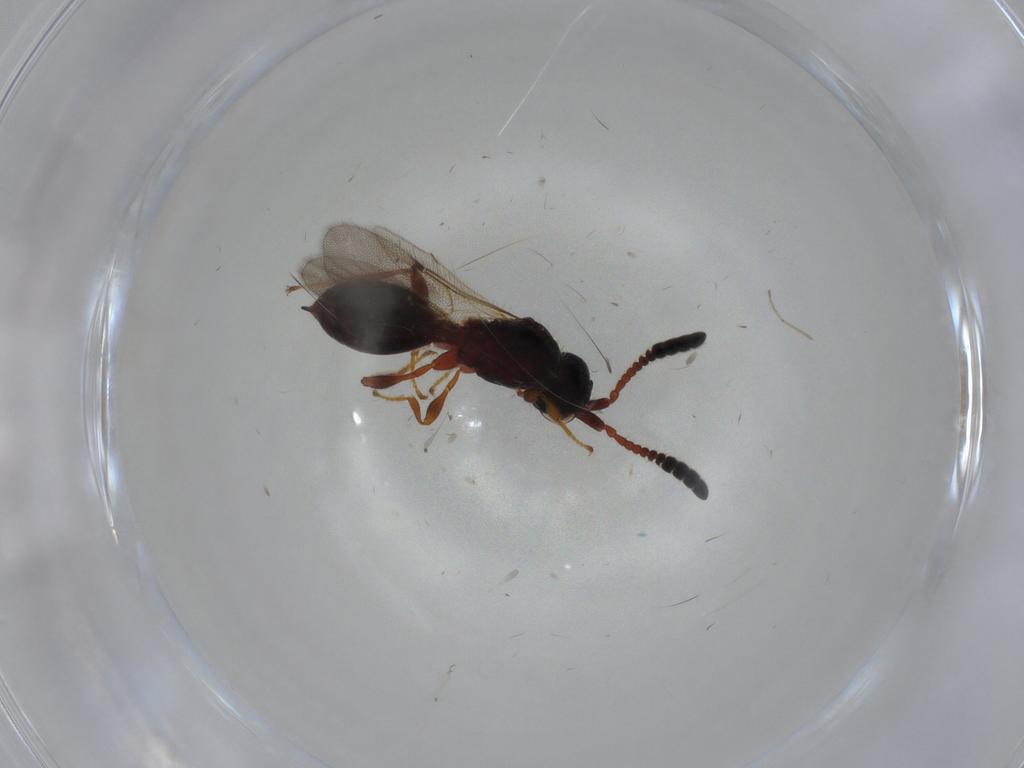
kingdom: Animalia
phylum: Arthropoda
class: Insecta
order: Hymenoptera
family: Diapriidae
